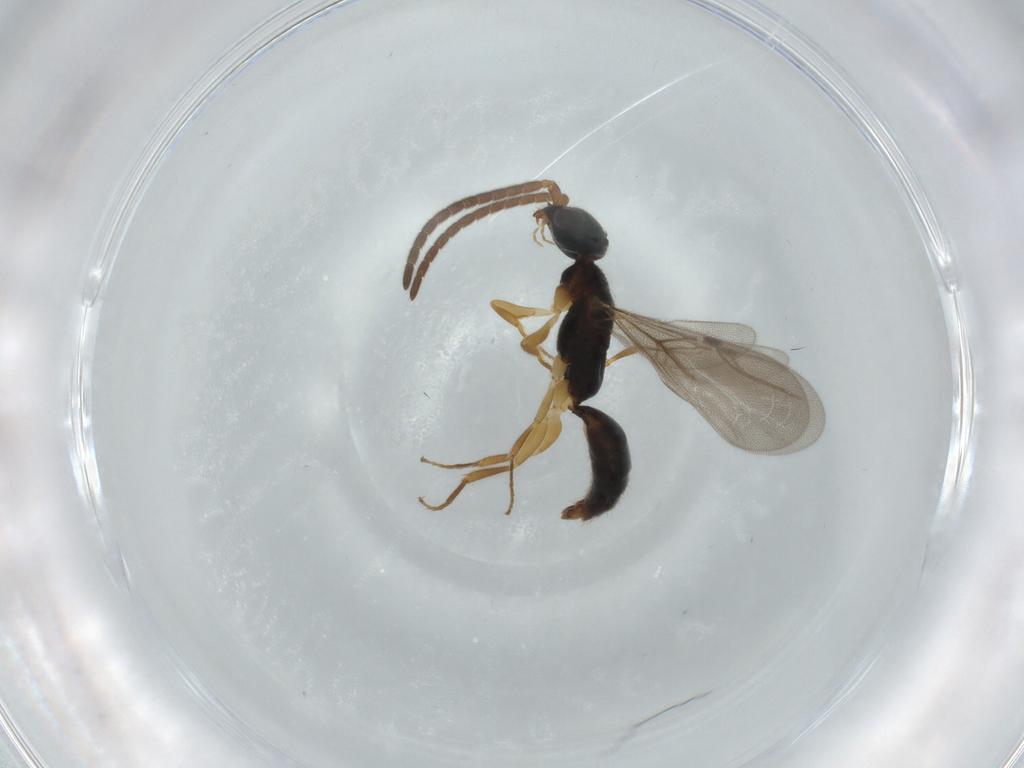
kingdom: Animalia
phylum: Arthropoda
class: Insecta
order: Hymenoptera
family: Bethylidae
